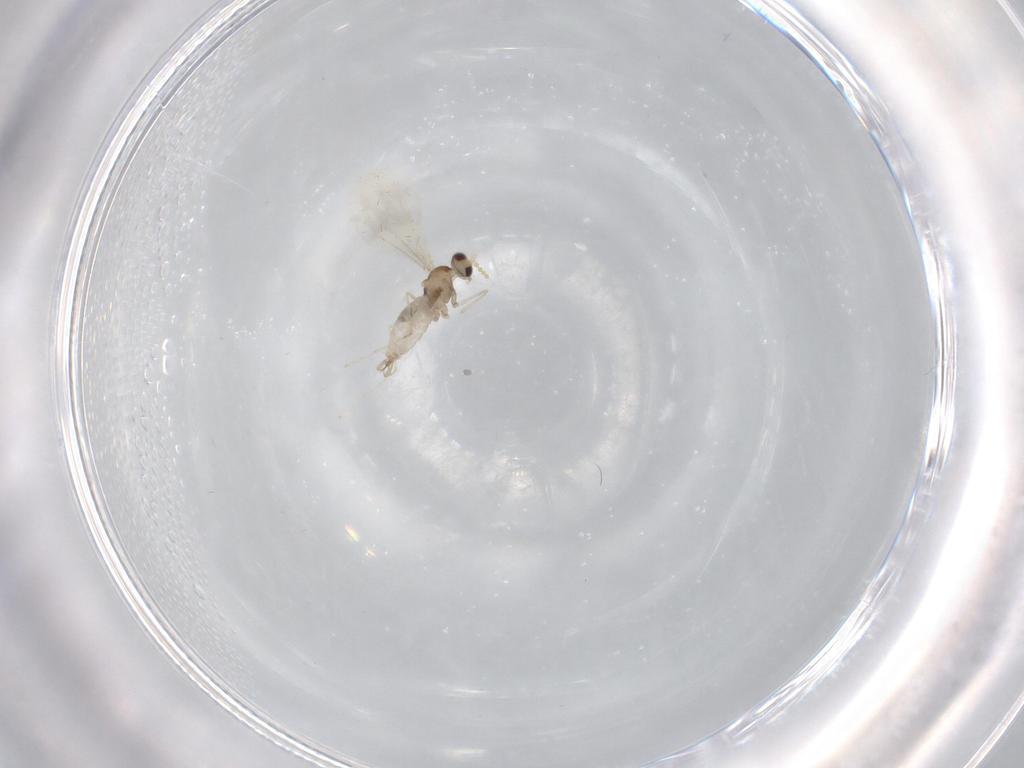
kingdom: Animalia
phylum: Arthropoda
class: Insecta
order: Diptera
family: Cecidomyiidae
